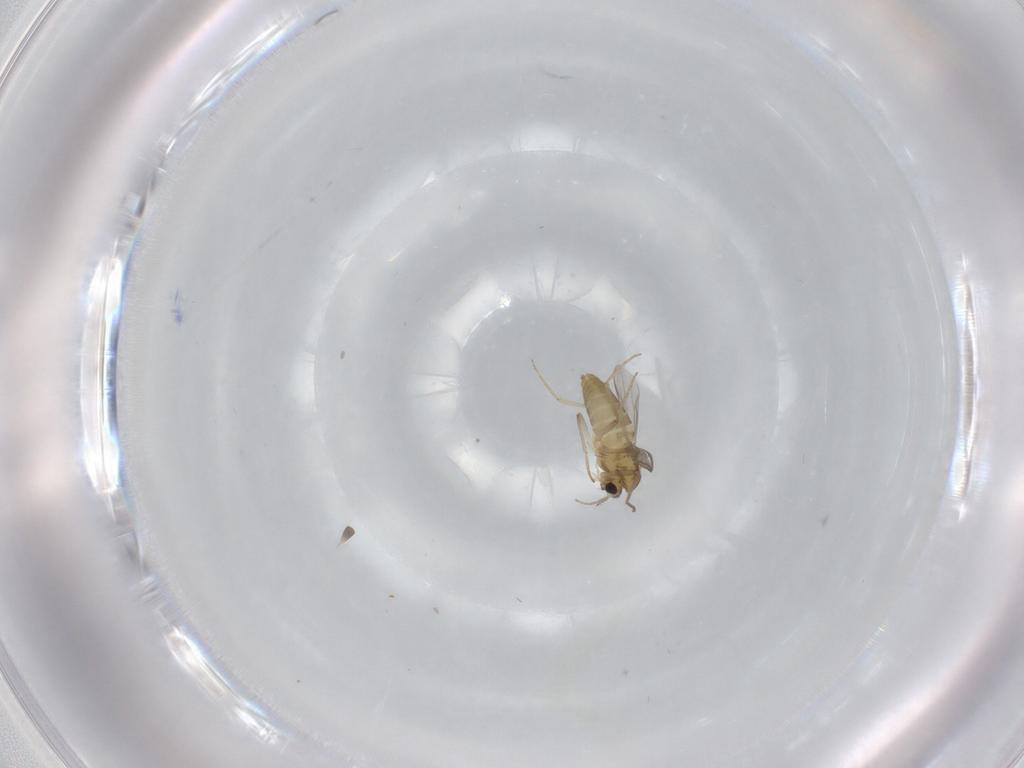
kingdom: Animalia
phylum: Arthropoda
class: Insecta
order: Diptera
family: Chironomidae
